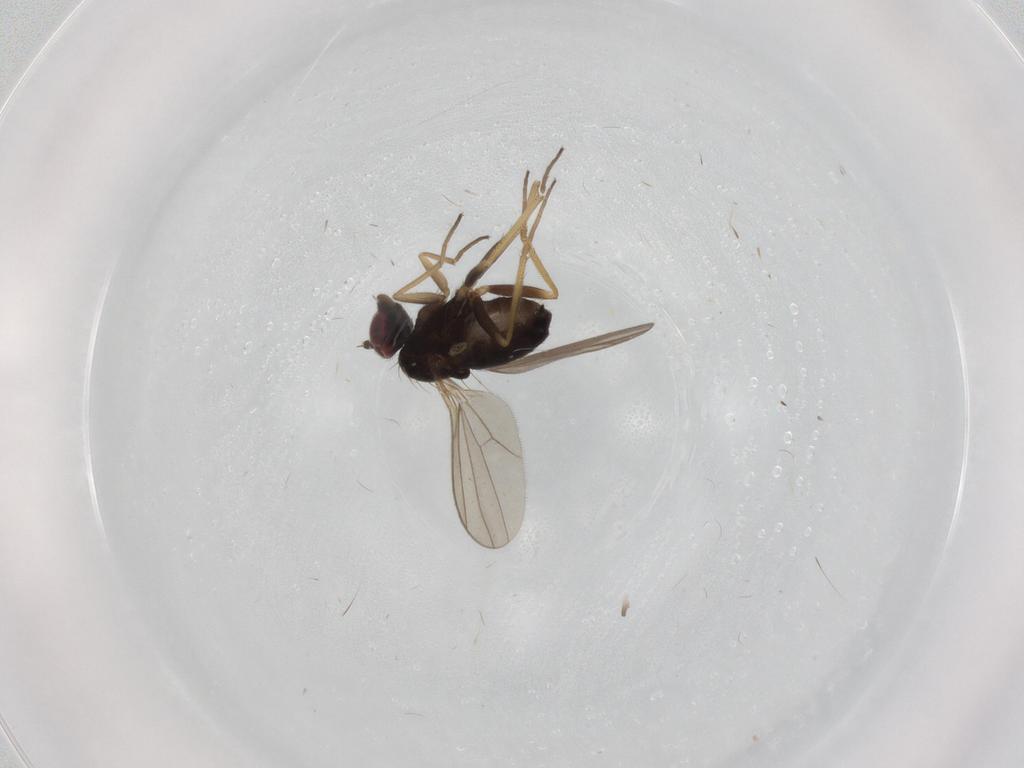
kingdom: Animalia
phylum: Arthropoda
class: Insecta
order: Diptera
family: Dolichopodidae
